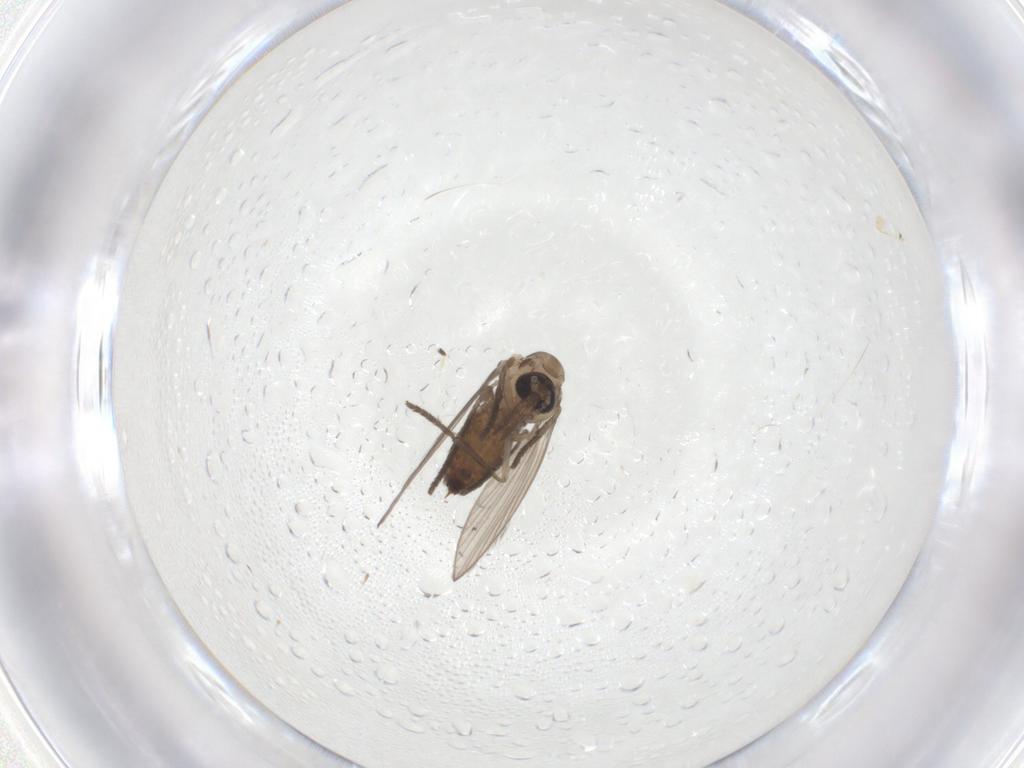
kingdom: Animalia
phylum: Arthropoda
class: Insecta
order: Diptera
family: Psychodidae
